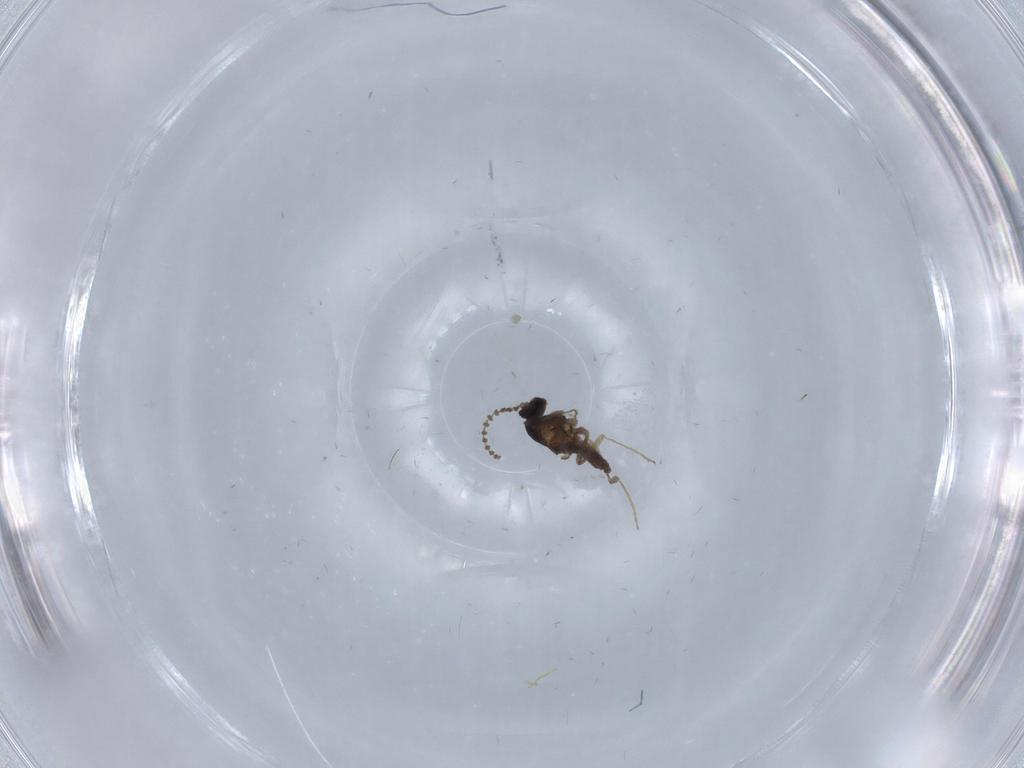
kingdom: Animalia
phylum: Arthropoda
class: Insecta
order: Diptera
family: Cecidomyiidae
